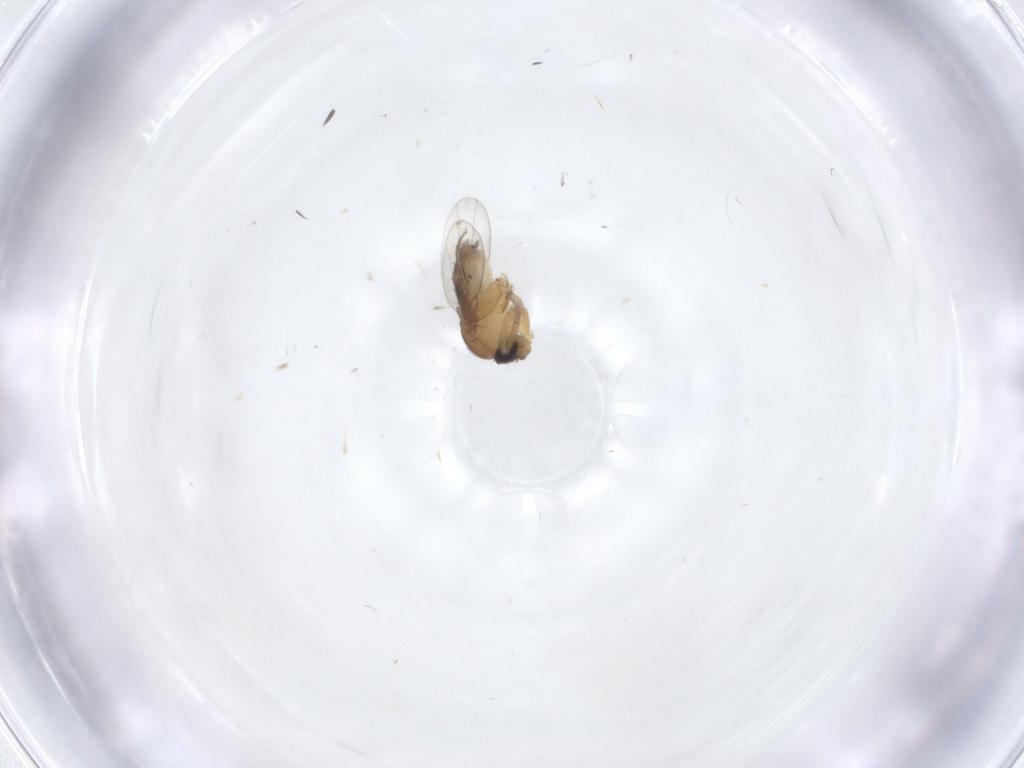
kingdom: Animalia
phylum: Arthropoda
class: Insecta
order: Diptera
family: Phoridae
